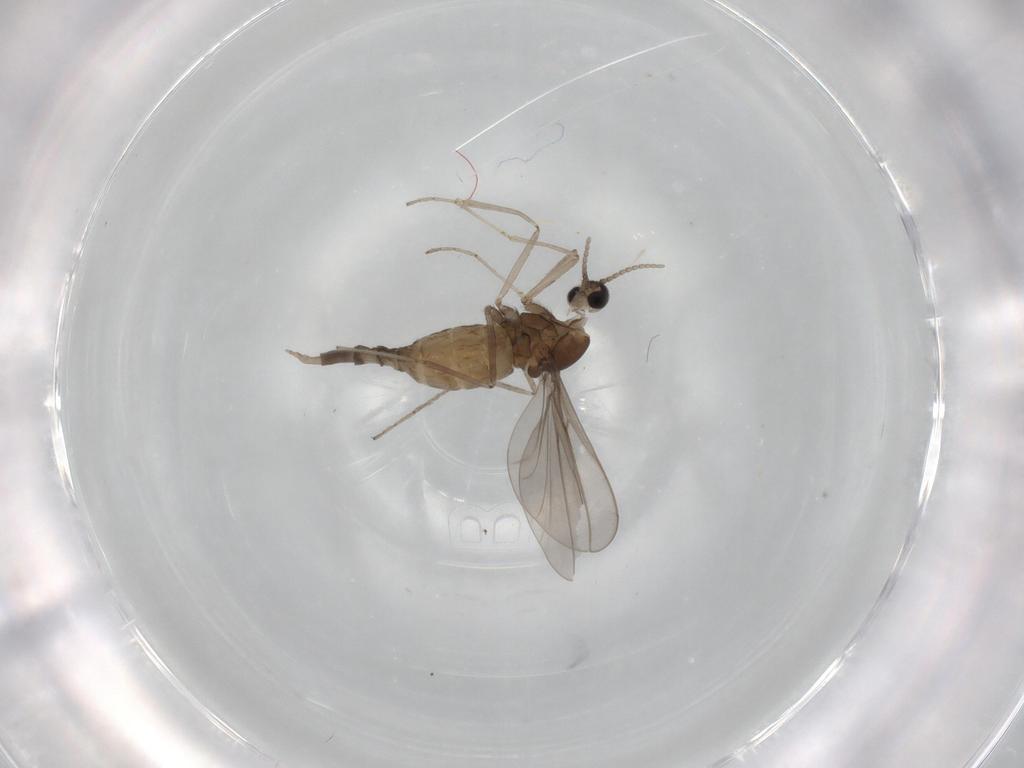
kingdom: Animalia
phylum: Arthropoda
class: Insecta
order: Diptera
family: Cecidomyiidae
